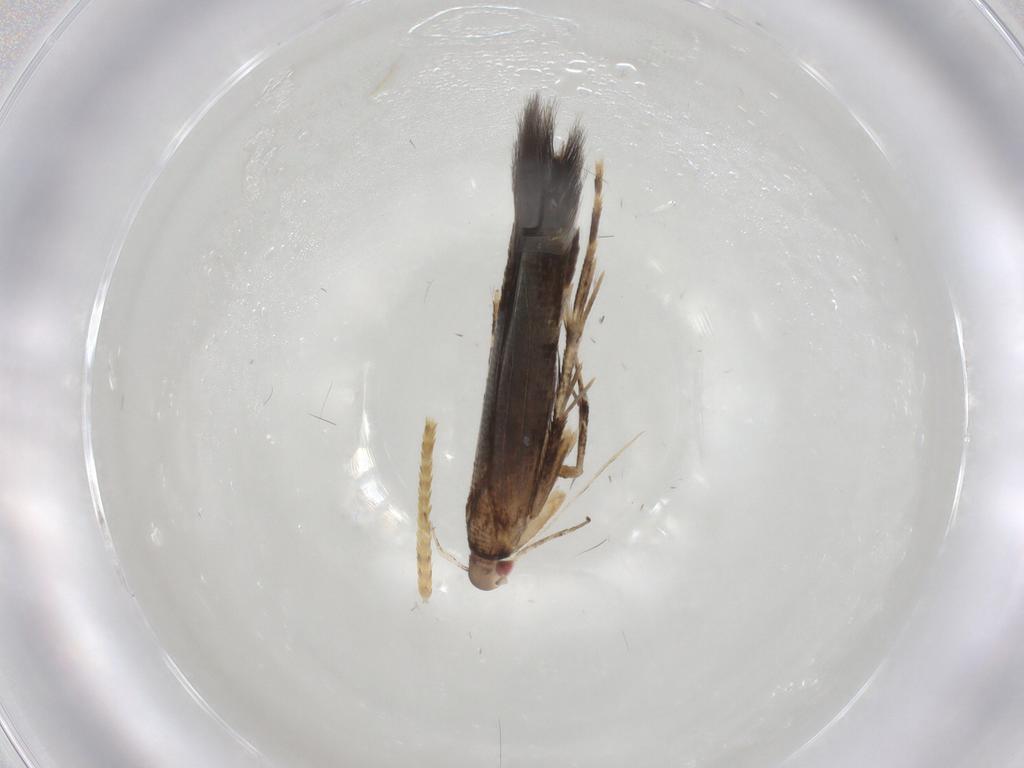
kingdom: Animalia
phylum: Arthropoda
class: Insecta
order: Lepidoptera
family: Cosmopterigidae
